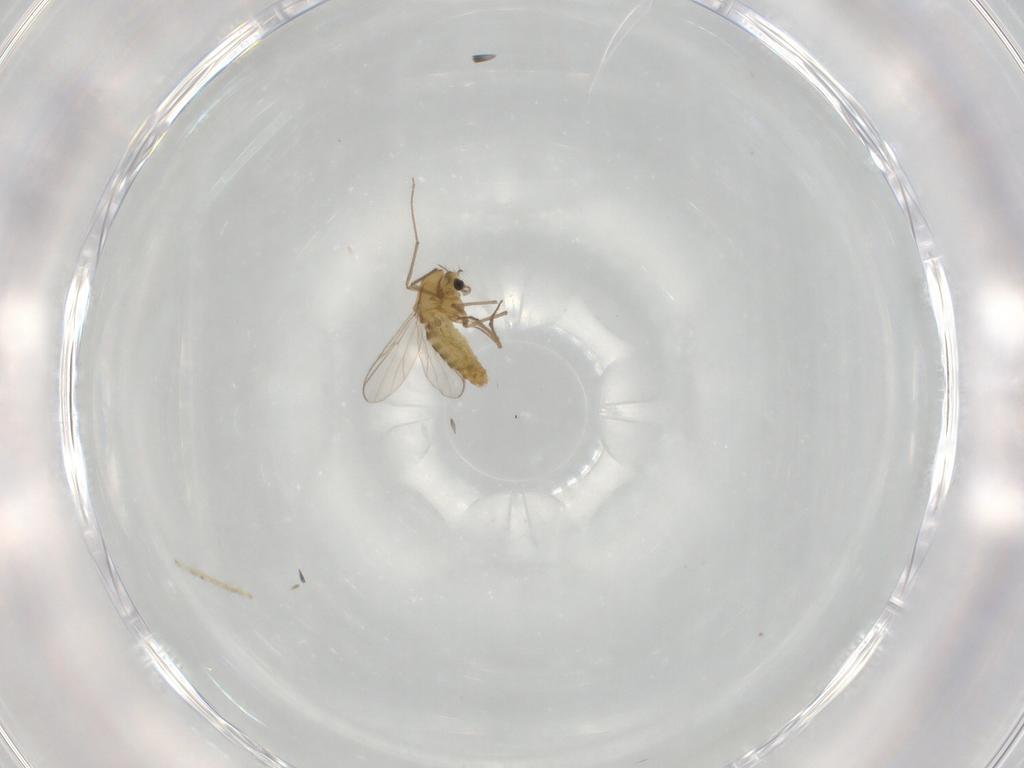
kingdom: Animalia
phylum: Arthropoda
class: Insecta
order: Diptera
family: Chironomidae
